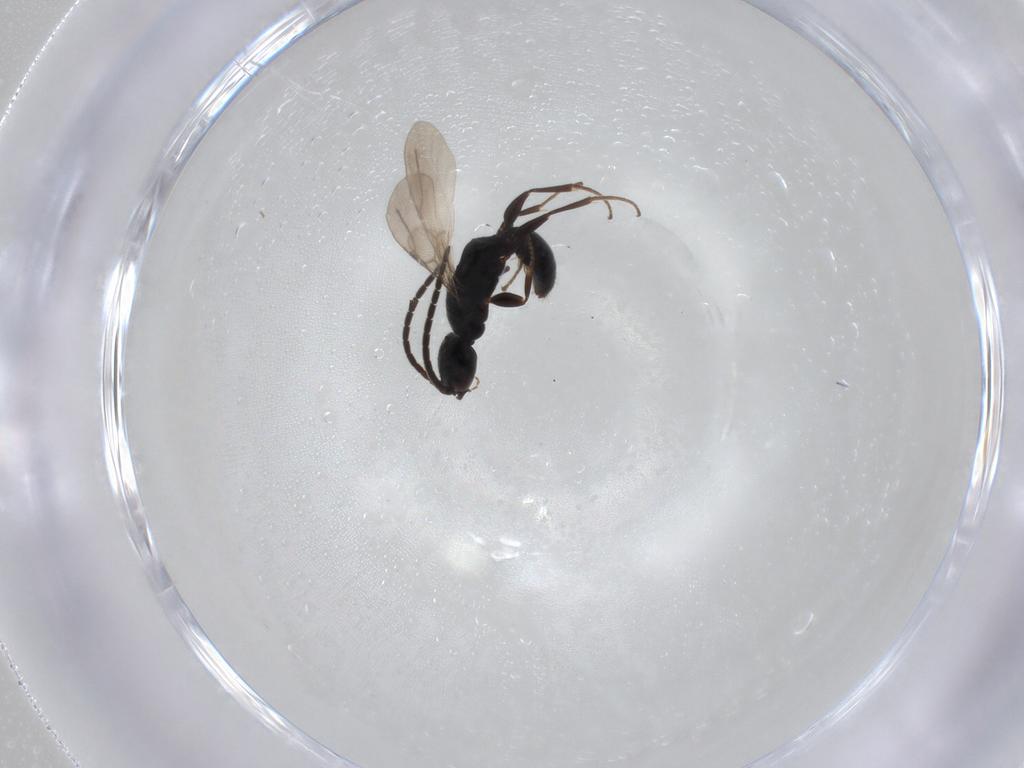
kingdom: Animalia
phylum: Arthropoda
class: Insecta
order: Hymenoptera
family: Bethylidae
